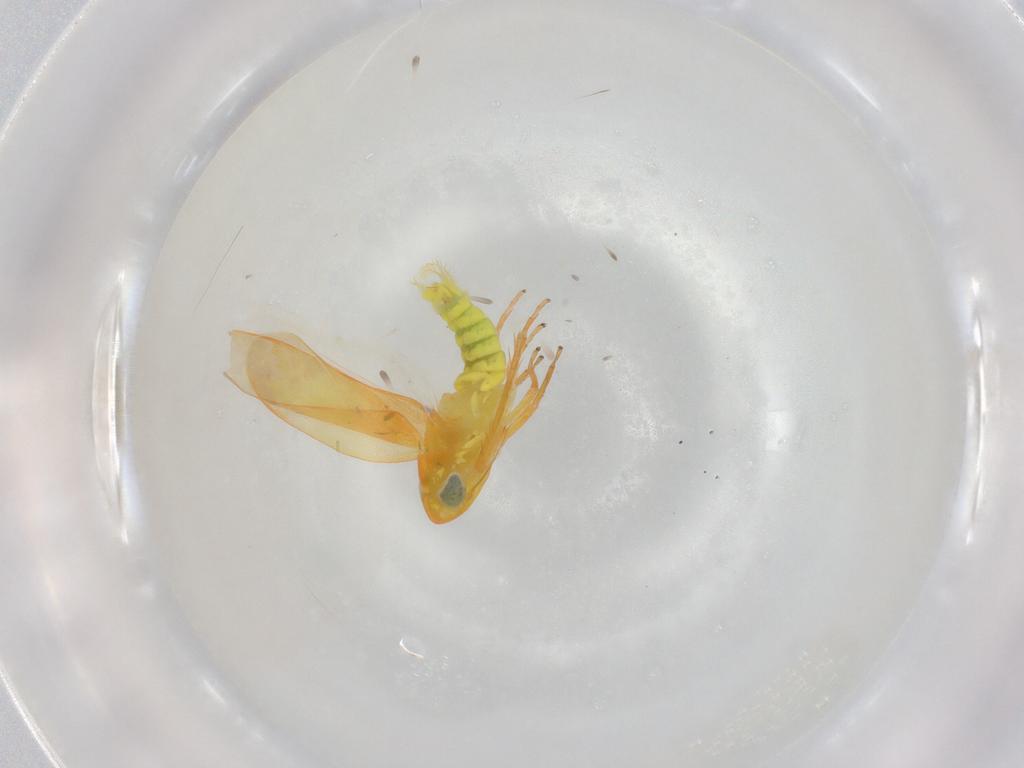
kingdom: Animalia
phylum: Arthropoda
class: Insecta
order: Hemiptera
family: Cicadellidae
